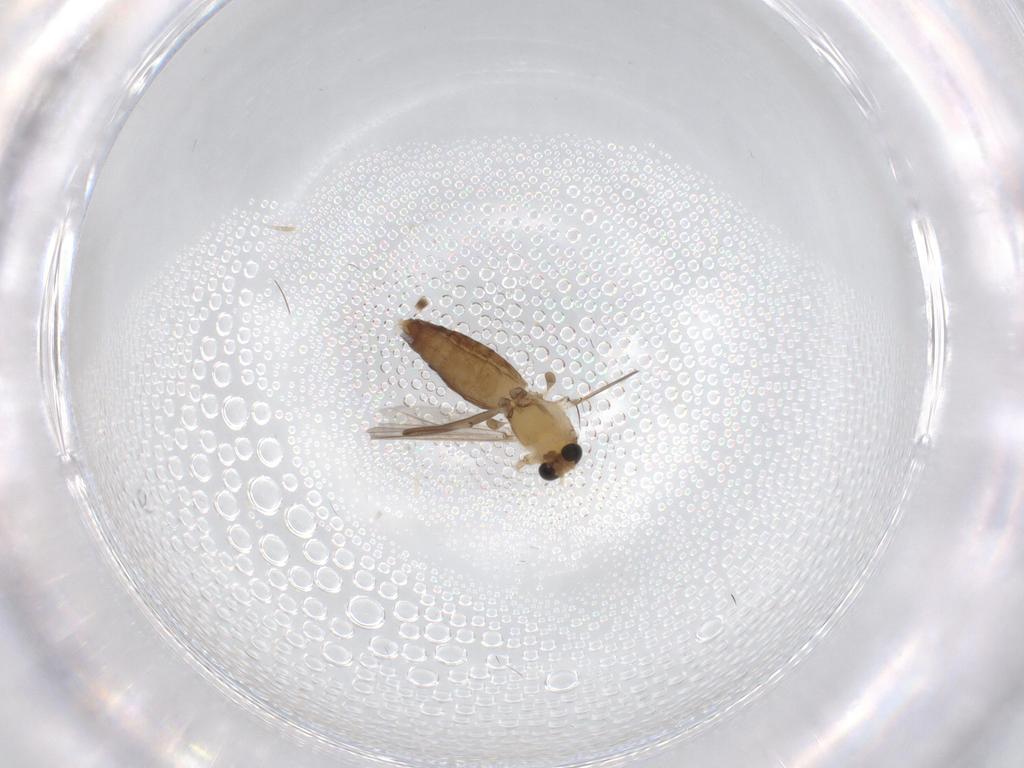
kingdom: Animalia
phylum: Arthropoda
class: Insecta
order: Diptera
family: Chironomidae
